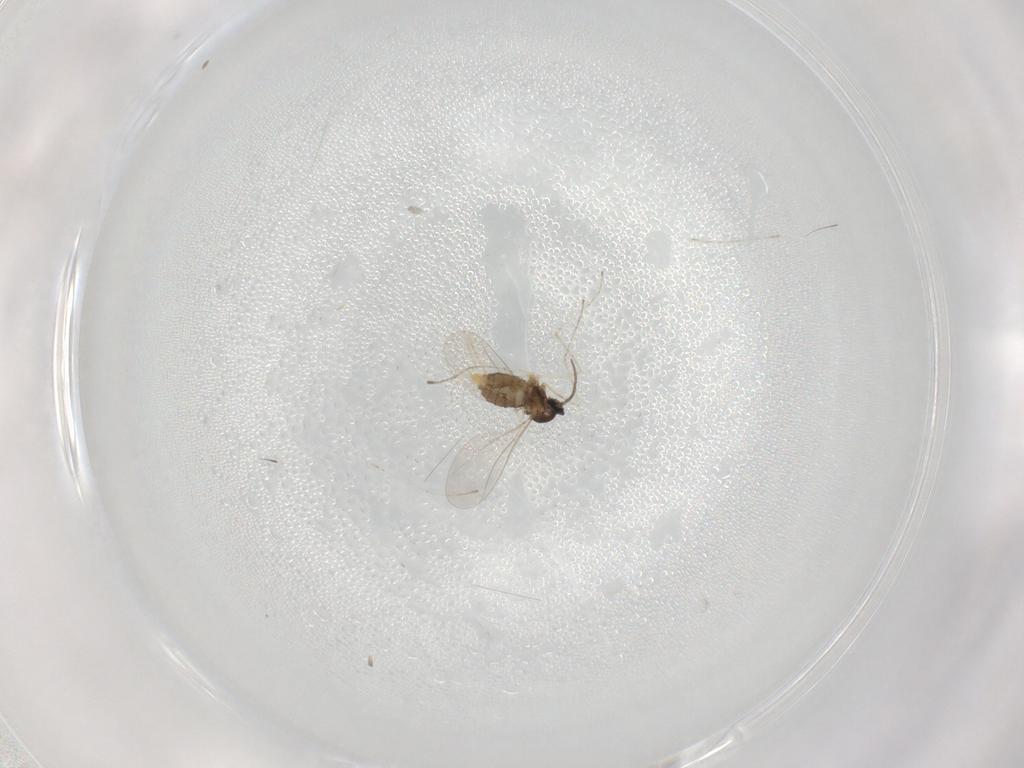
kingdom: Animalia
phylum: Arthropoda
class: Insecta
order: Diptera
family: Cecidomyiidae
